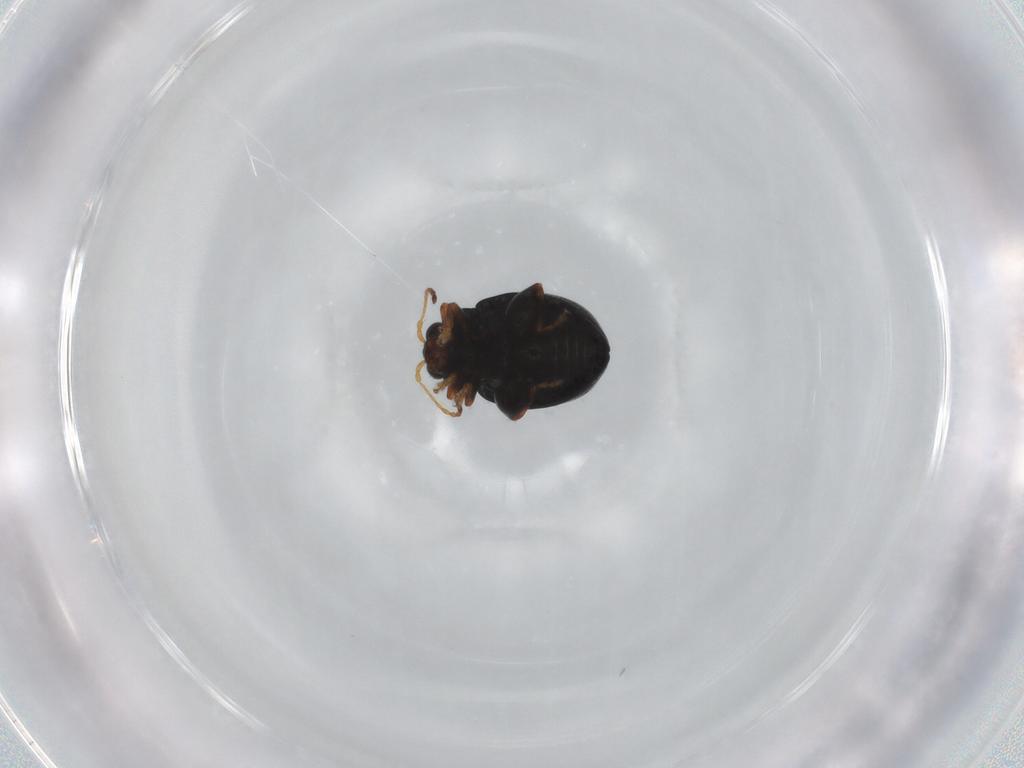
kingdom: Animalia
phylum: Arthropoda
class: Insecta
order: Coleoptera
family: Chrysomelidae
